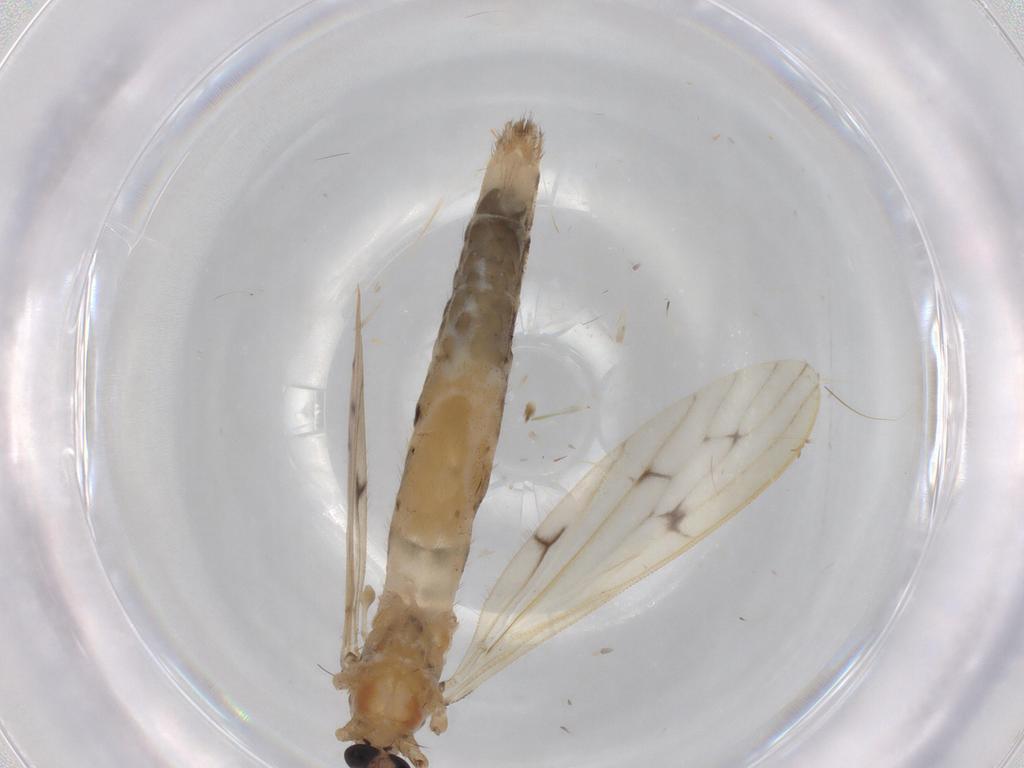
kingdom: Animalia
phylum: Arthropoda
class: Insecta
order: Diptera
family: Limoniidae
